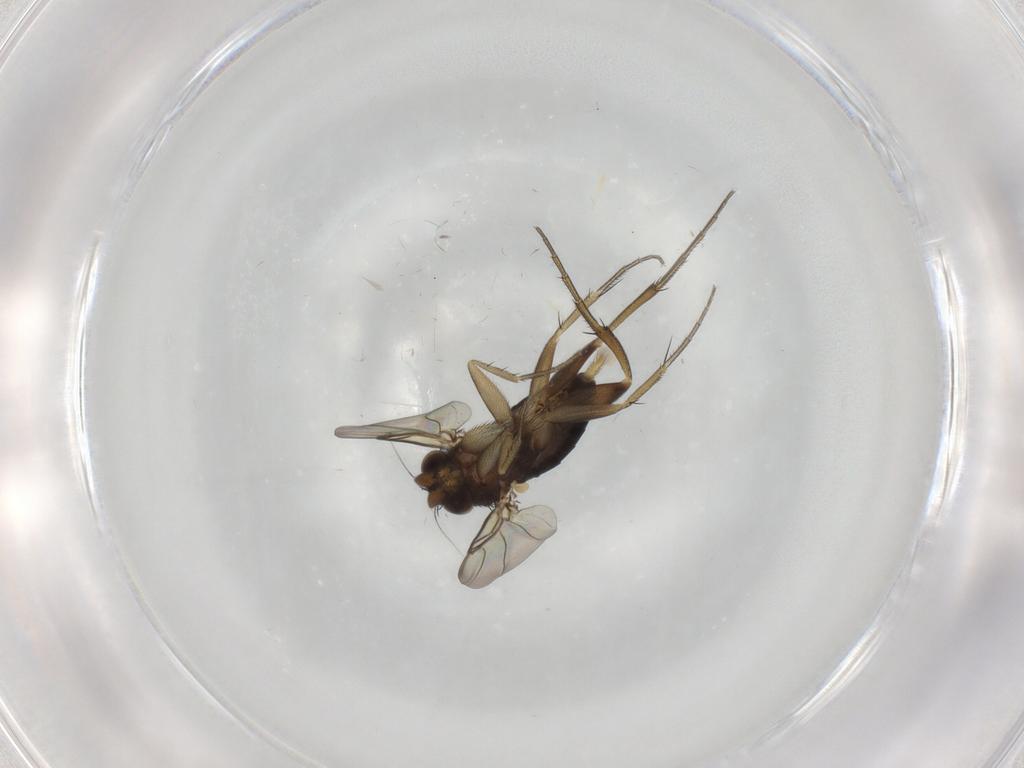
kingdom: Animalia
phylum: Arthropoda
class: Insecta
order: Diptera
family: Phoridae
